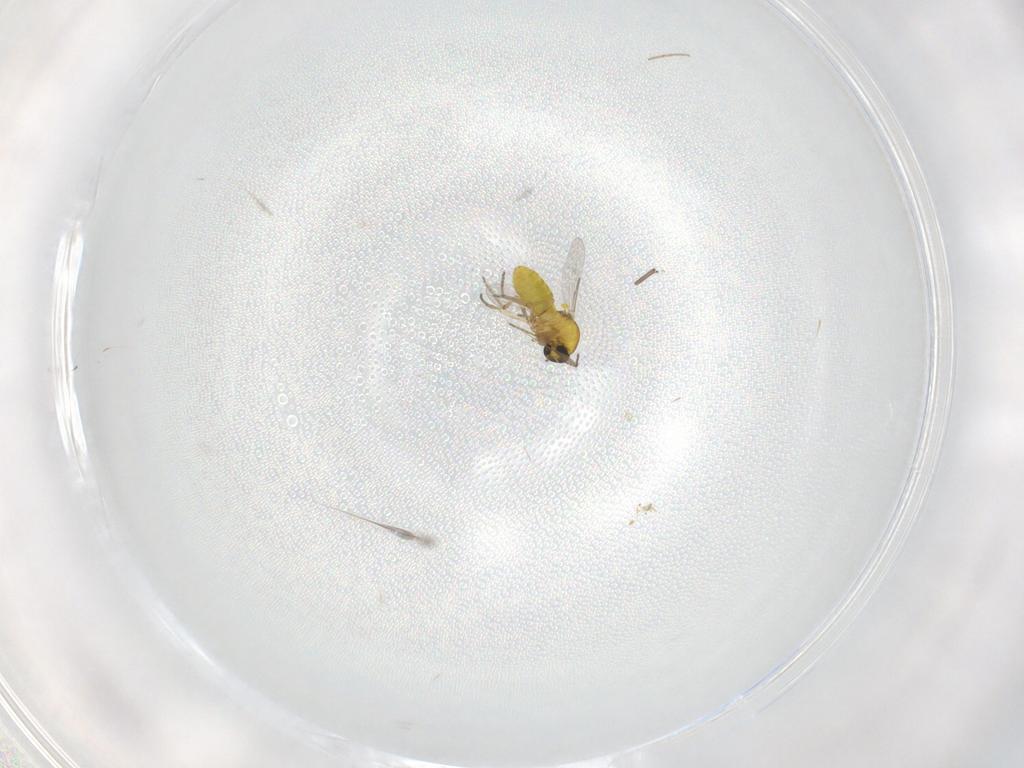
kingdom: Animalia
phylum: Arthropoda
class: Insecta
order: Diptera
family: Ceratopogonidae
